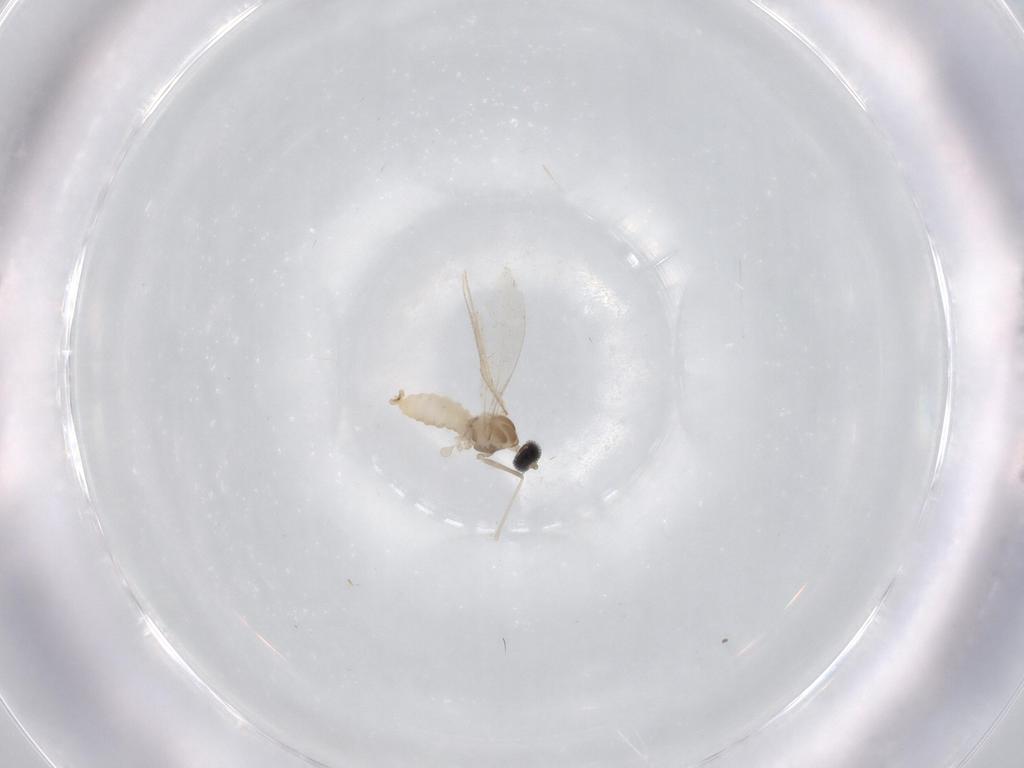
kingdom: Animalia
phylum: Arthropoda
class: Insecta
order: Diptera
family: Cecidomyiidae
